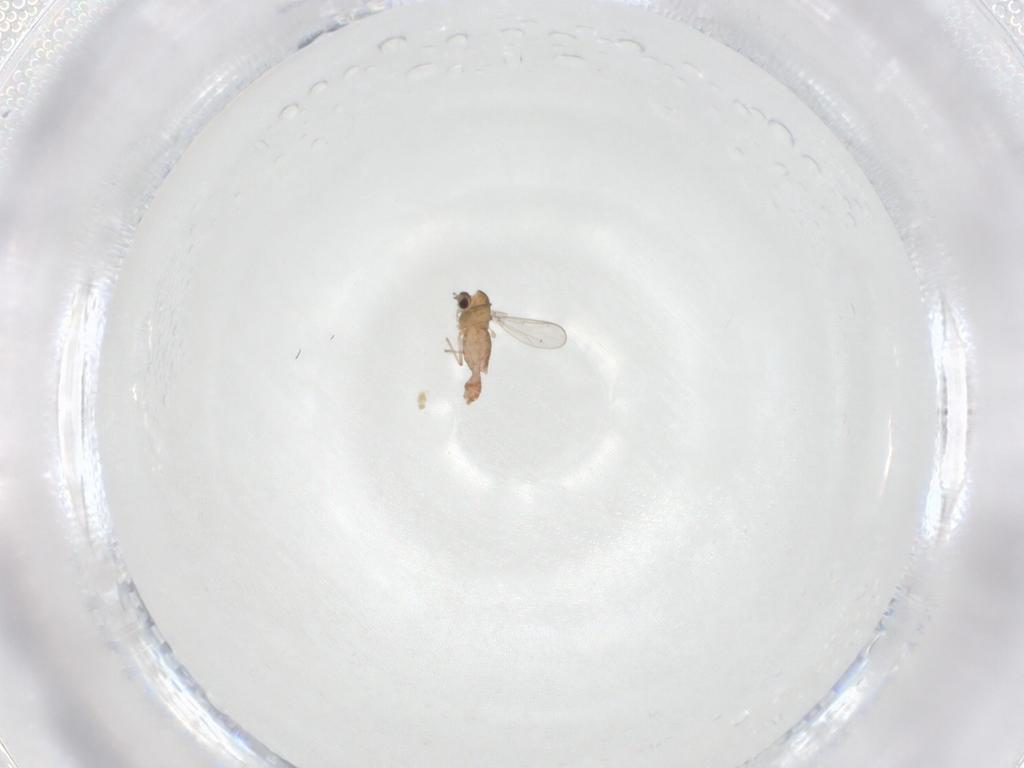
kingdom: Animalia
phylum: Arthropoda
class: Insecta
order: Diptera
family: Chironomidae
